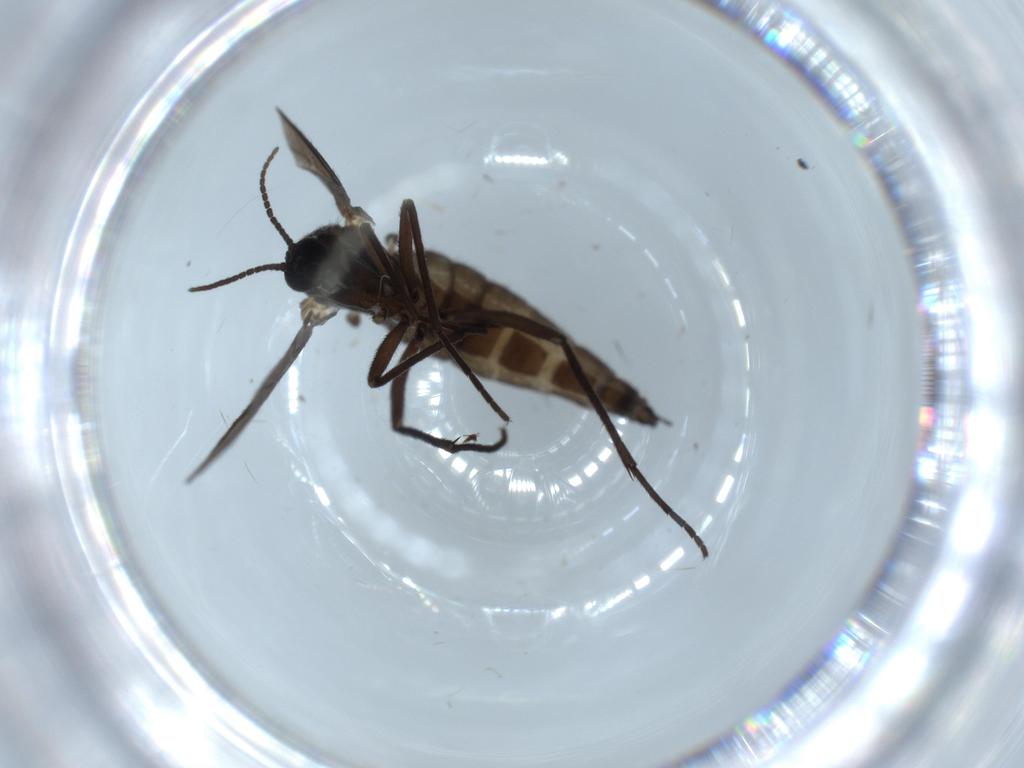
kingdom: Animalia
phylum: Arthropoda
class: Insecta
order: Diptera
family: Sciaridae
